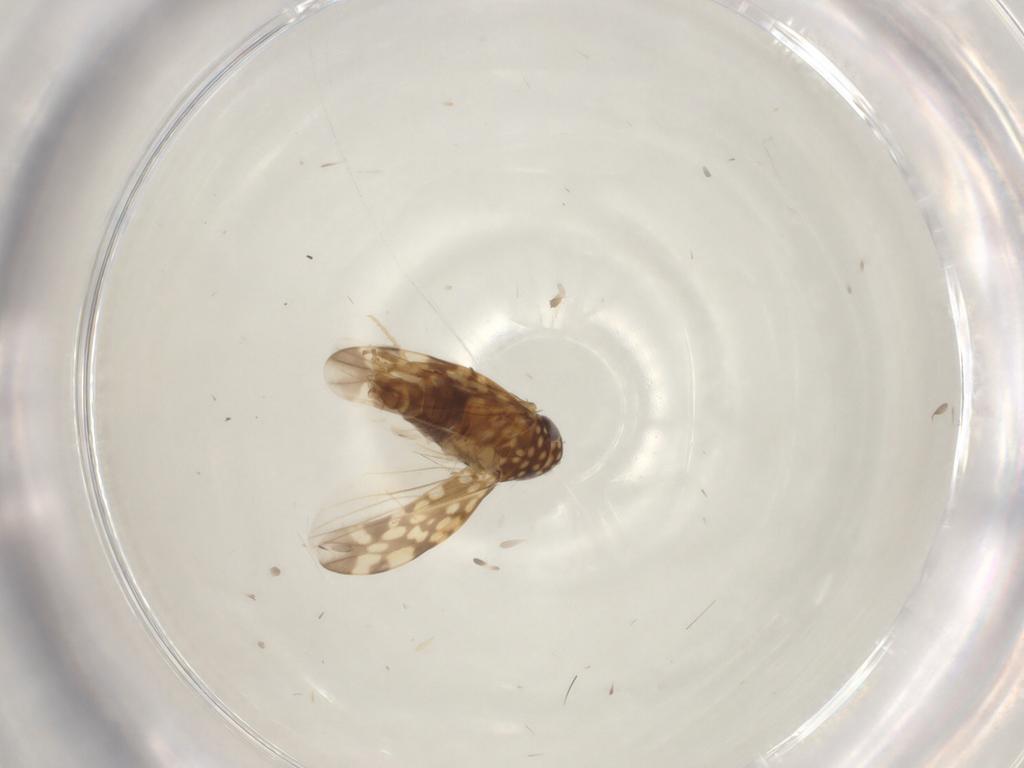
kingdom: Animalia
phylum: Arthropoda
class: Insecta
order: Hemiptera
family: Cicadellidae
